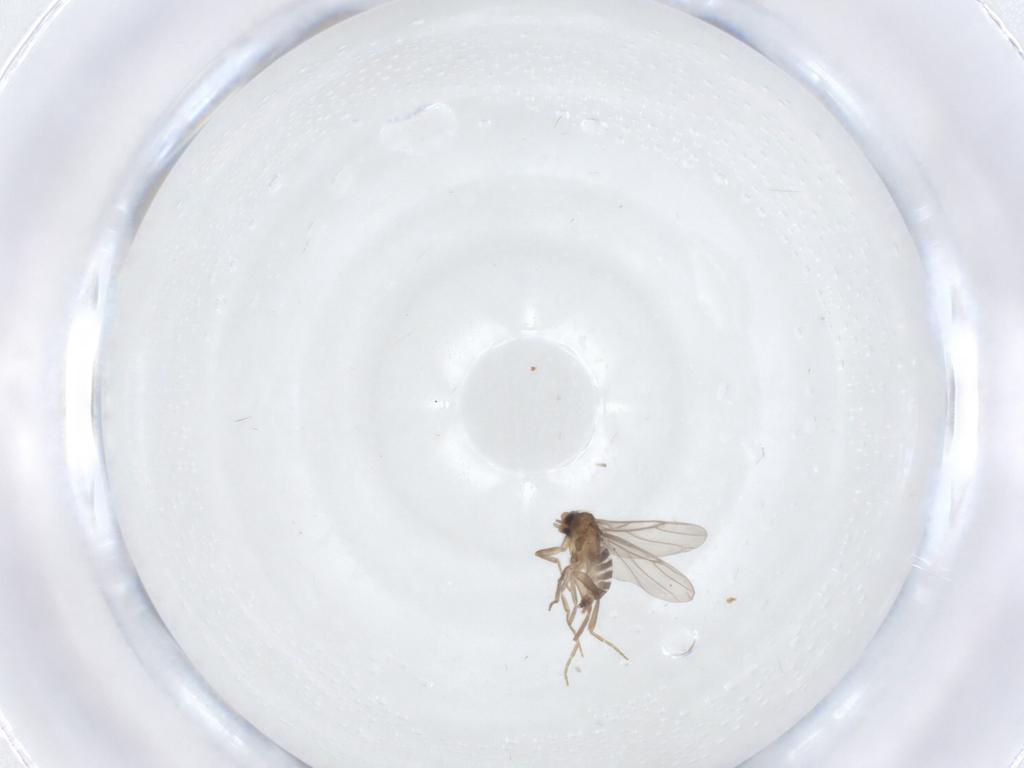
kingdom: Animalia
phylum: Arthropoda
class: Insecta
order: Diptera
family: Cecidomyiidae
